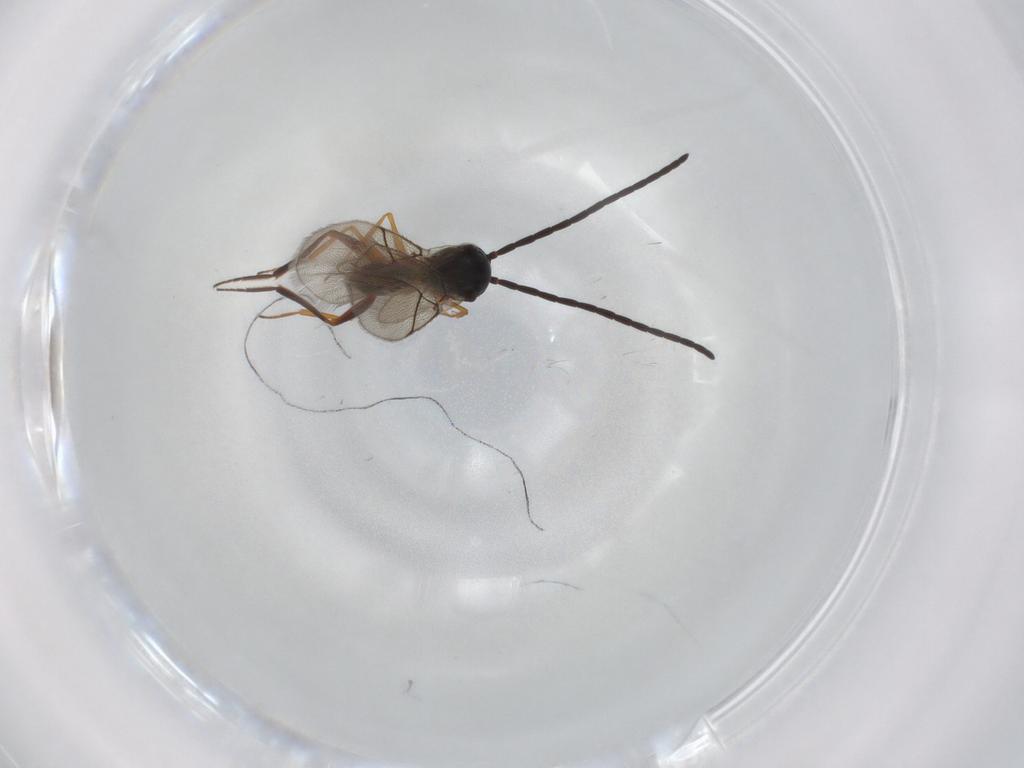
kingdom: Animalia
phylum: Arthropoda
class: Insecta
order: Hymenoptera
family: Figitidae
